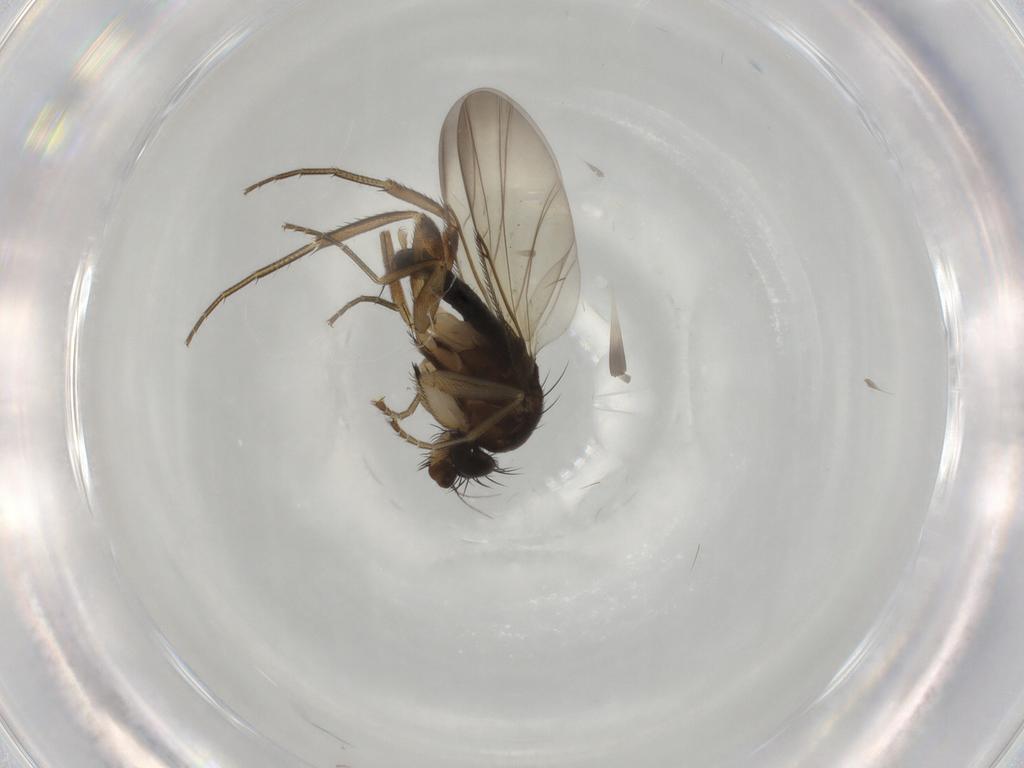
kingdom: Animalia
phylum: Arthropoda
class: Insecta
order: Diptera
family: Phoridae
